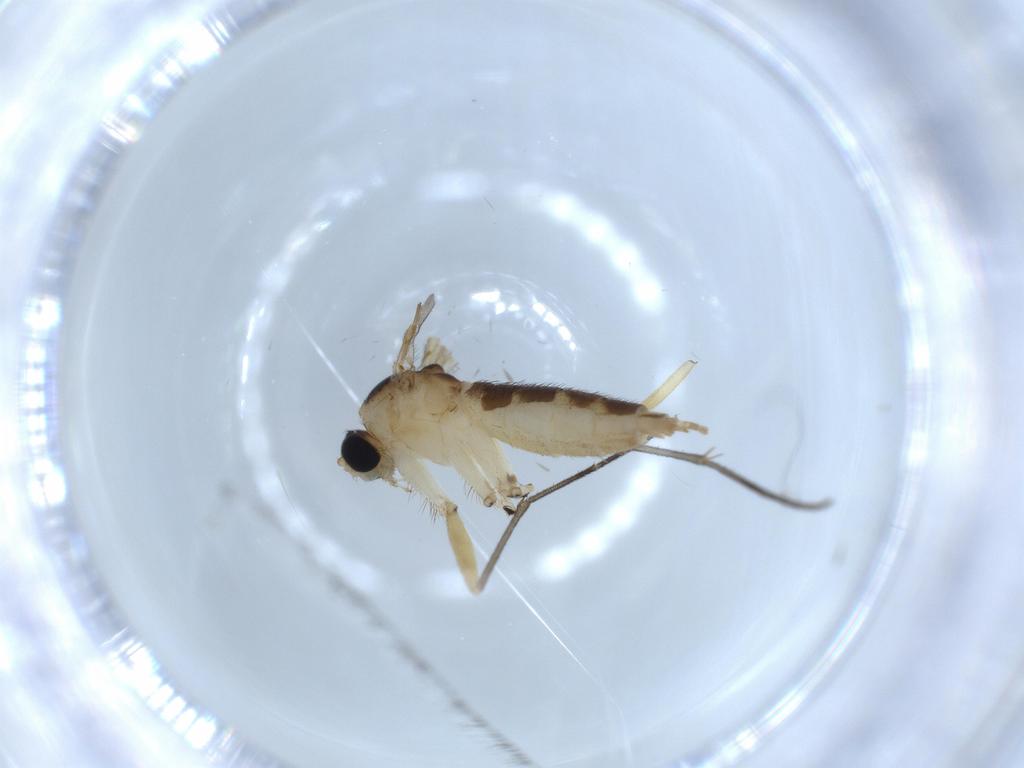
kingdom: Animalia
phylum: Arthropoda
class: Insecta
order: Diptera
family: Sciaridae
